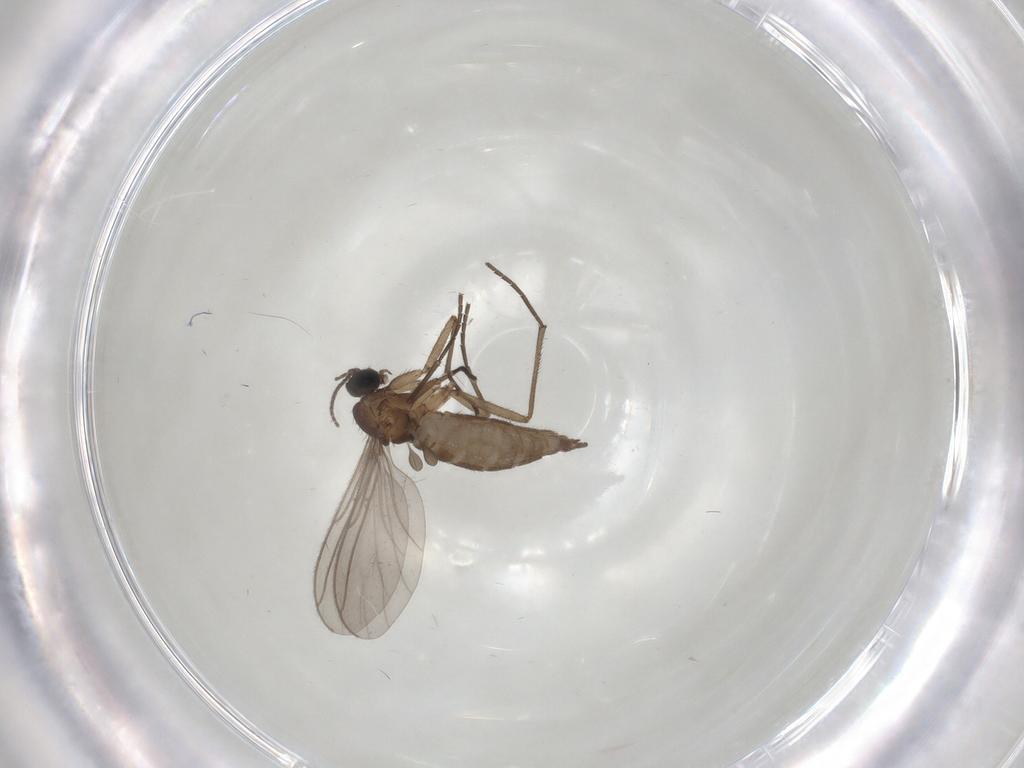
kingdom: Animalia
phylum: Arthropoda
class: Insecta
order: Diptera
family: Sciaridae
